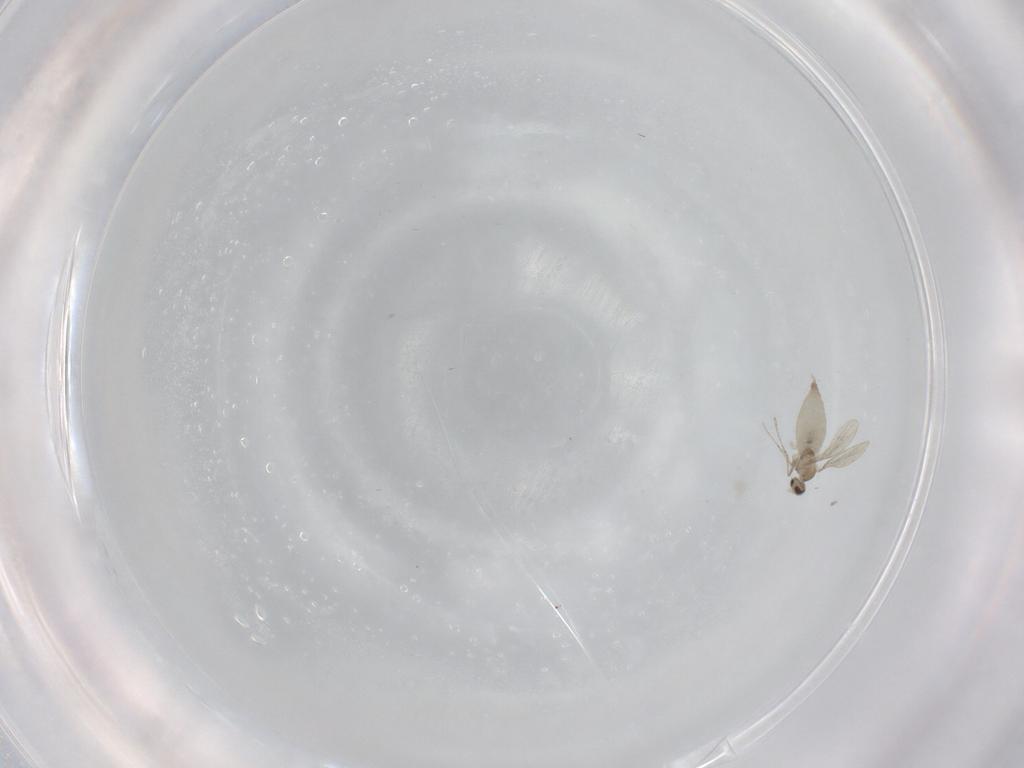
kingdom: Animalia
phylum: Arthropoda
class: Insecta
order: Diptera
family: Cecidomyiidae
